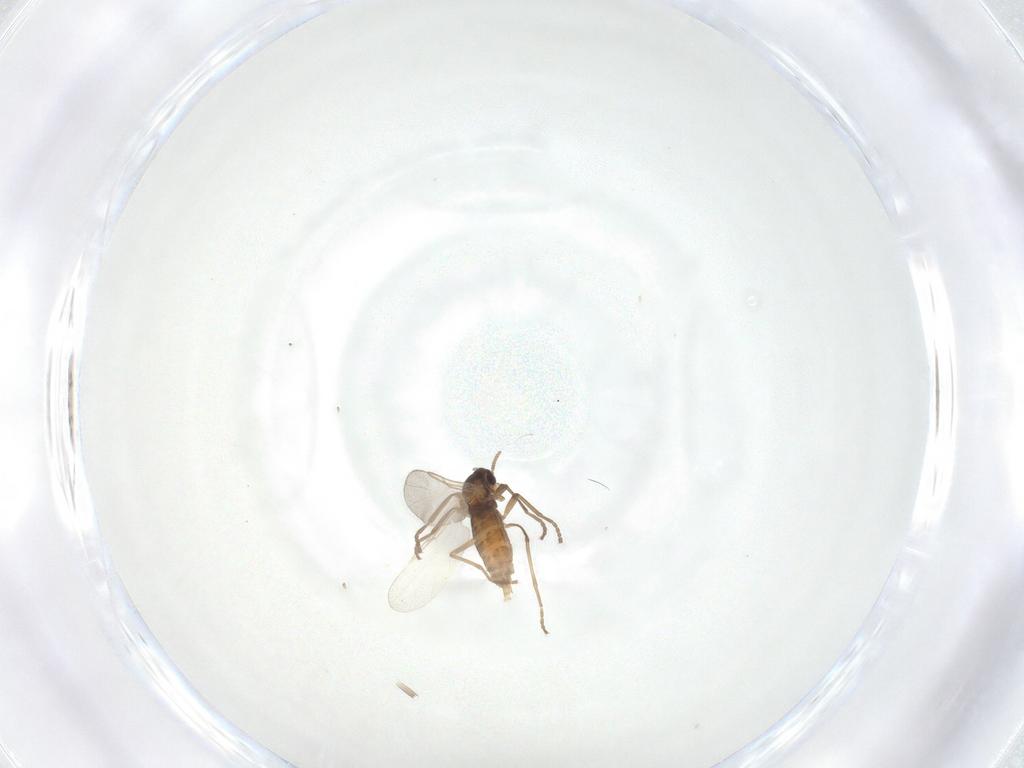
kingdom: Animalia
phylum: Arthropoda
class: Insecta
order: Diptera
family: Cecidomyiidae
